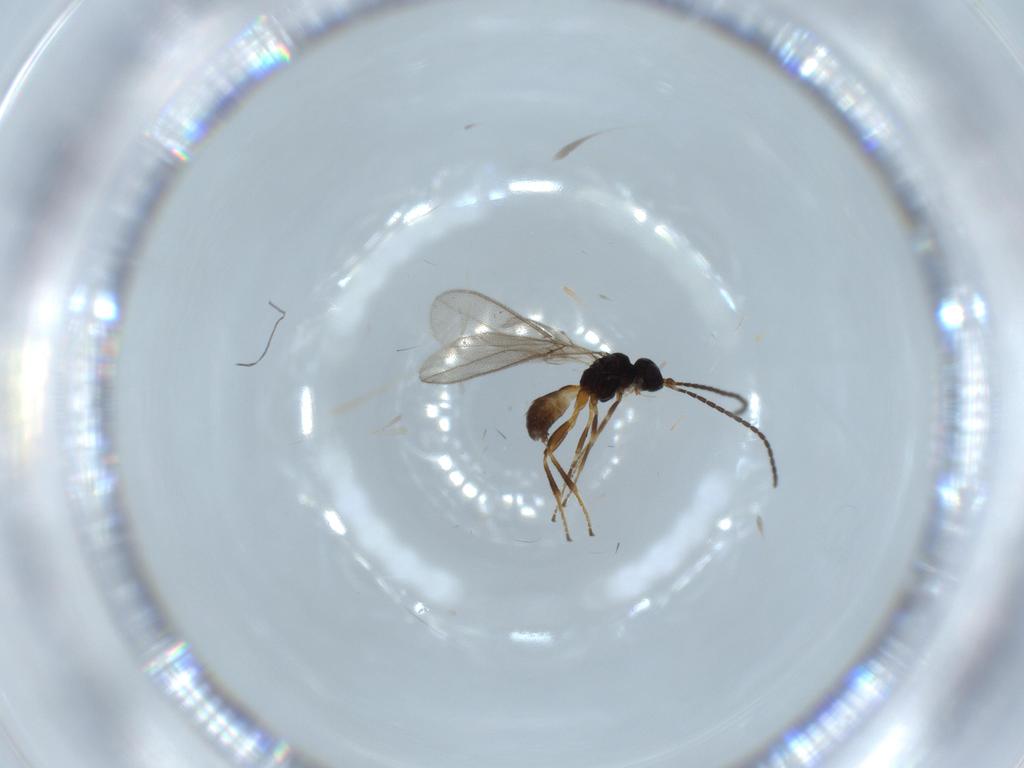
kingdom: Animalia
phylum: Arthropoda
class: Insecta
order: Hymenoptera
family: Braconidae
